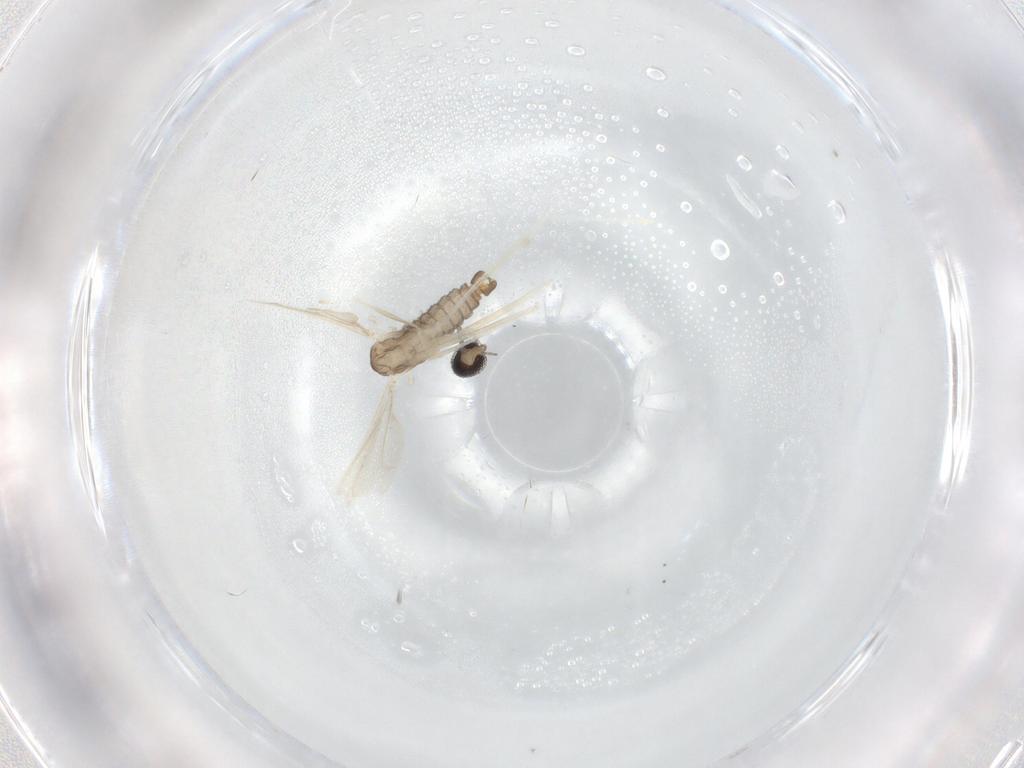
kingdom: Animalia
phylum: Arthropoda
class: Insecta
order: Diptera
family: Cecidomyiidae
